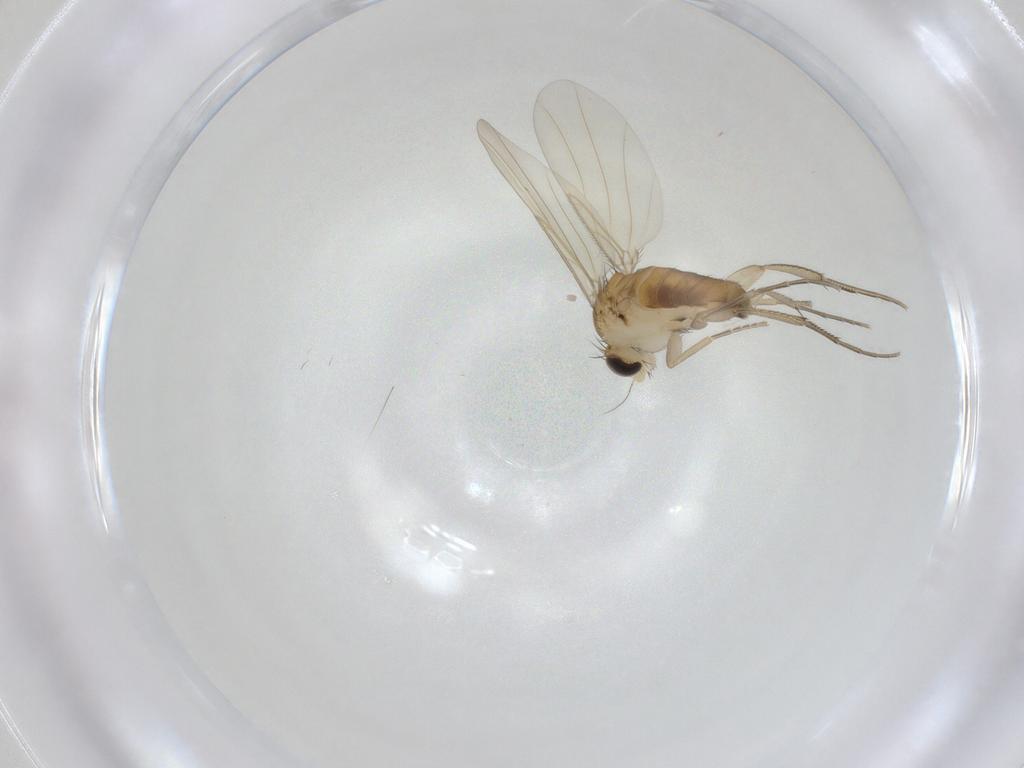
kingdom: Animalia
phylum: Arthropoda
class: Insecta
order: Diptera
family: Phoridae
